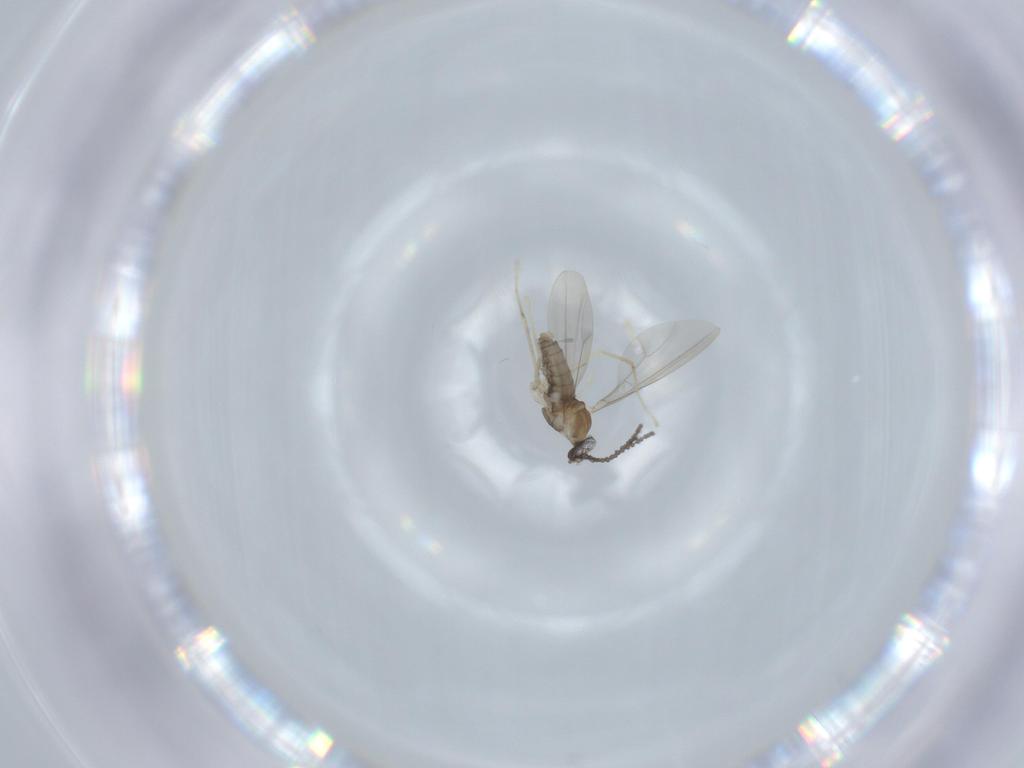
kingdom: Animalia
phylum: Arthropoda
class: Insecta
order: Diptera
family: Cecidomyiidae
